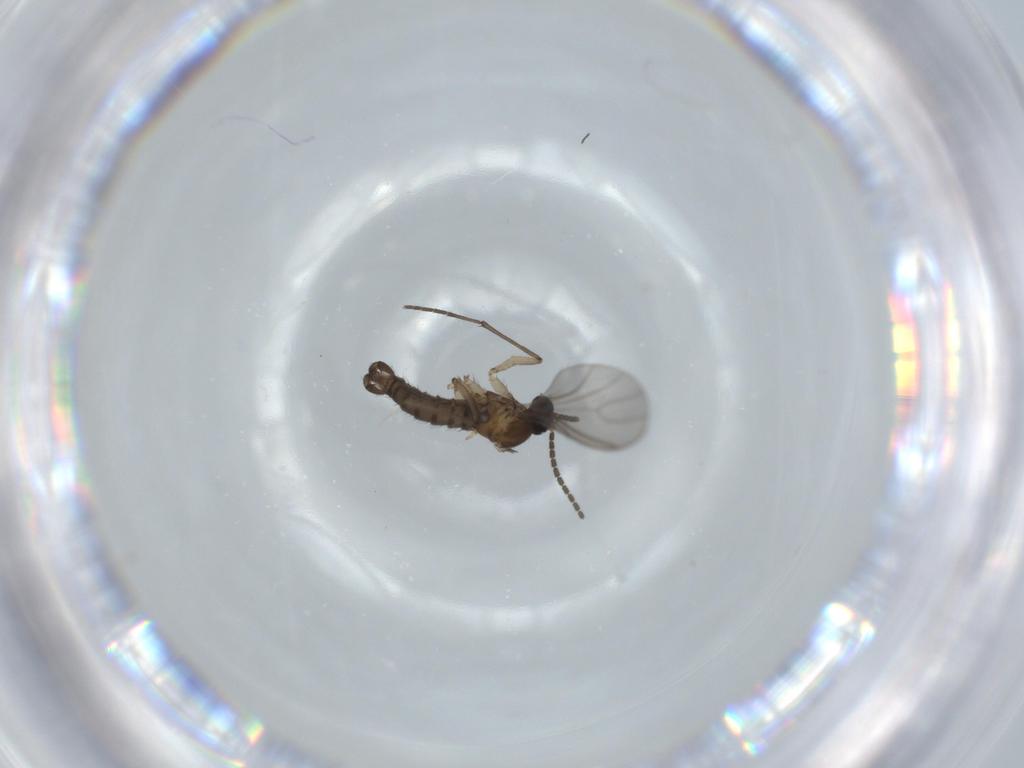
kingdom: Animalia
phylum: Arthropoda
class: Insecta
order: Diptera
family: Sciaridae
